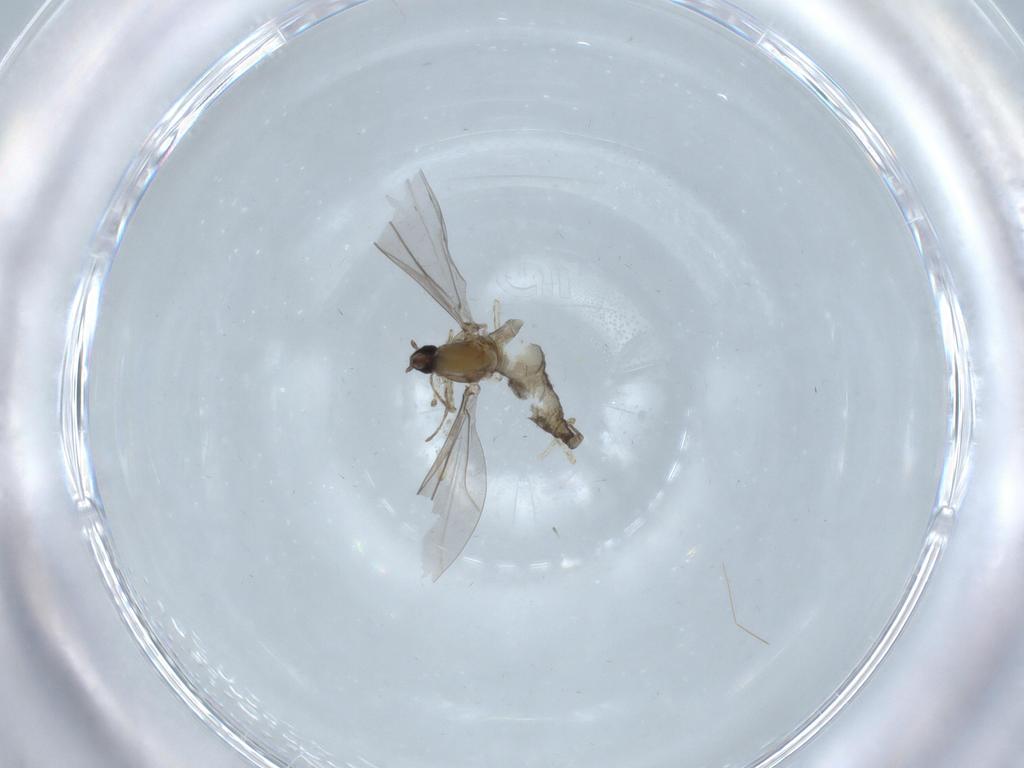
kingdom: Animalia
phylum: Arthropoda
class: Insecta
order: Diptera
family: Cecidomyiidae
